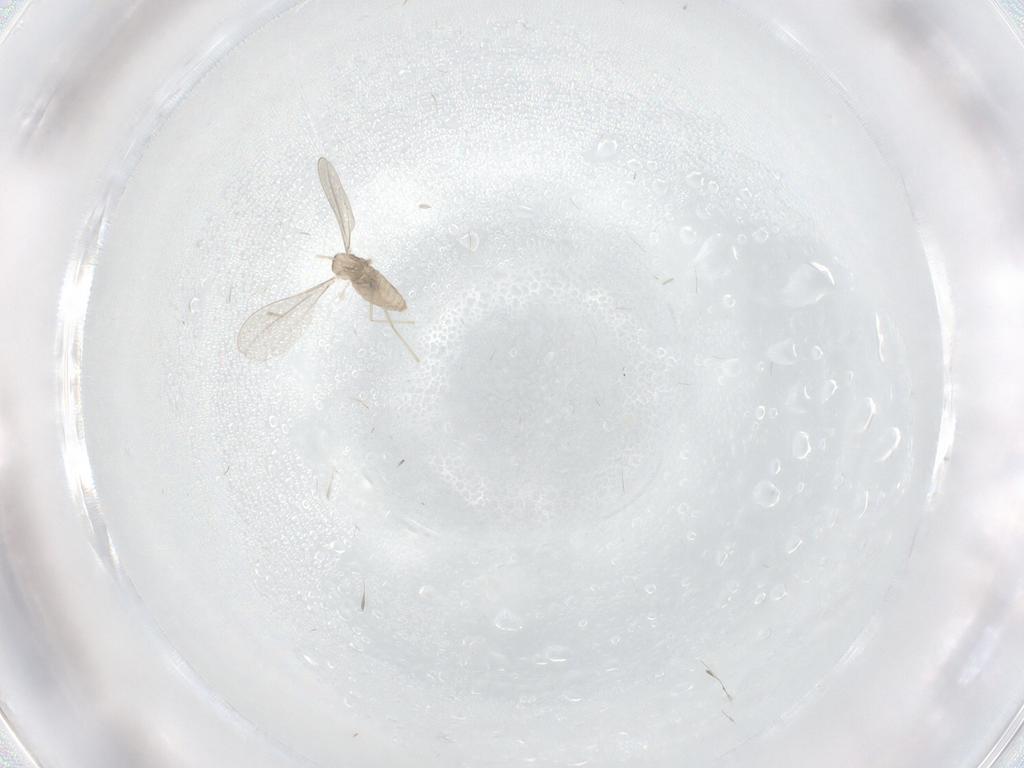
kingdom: Animalia
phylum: Arthropoda
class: Insecta
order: Diptera
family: Sciaridae
